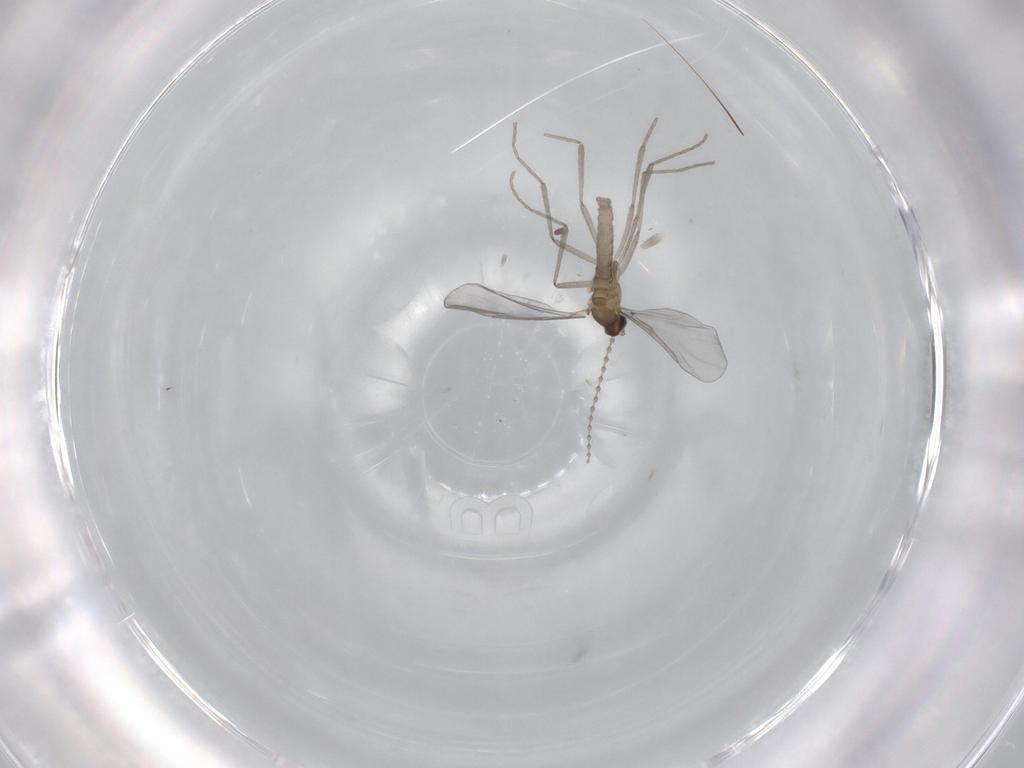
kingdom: Animalia
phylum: Arthropoda
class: Insecta
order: Diptera
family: Cecidomyiidae
